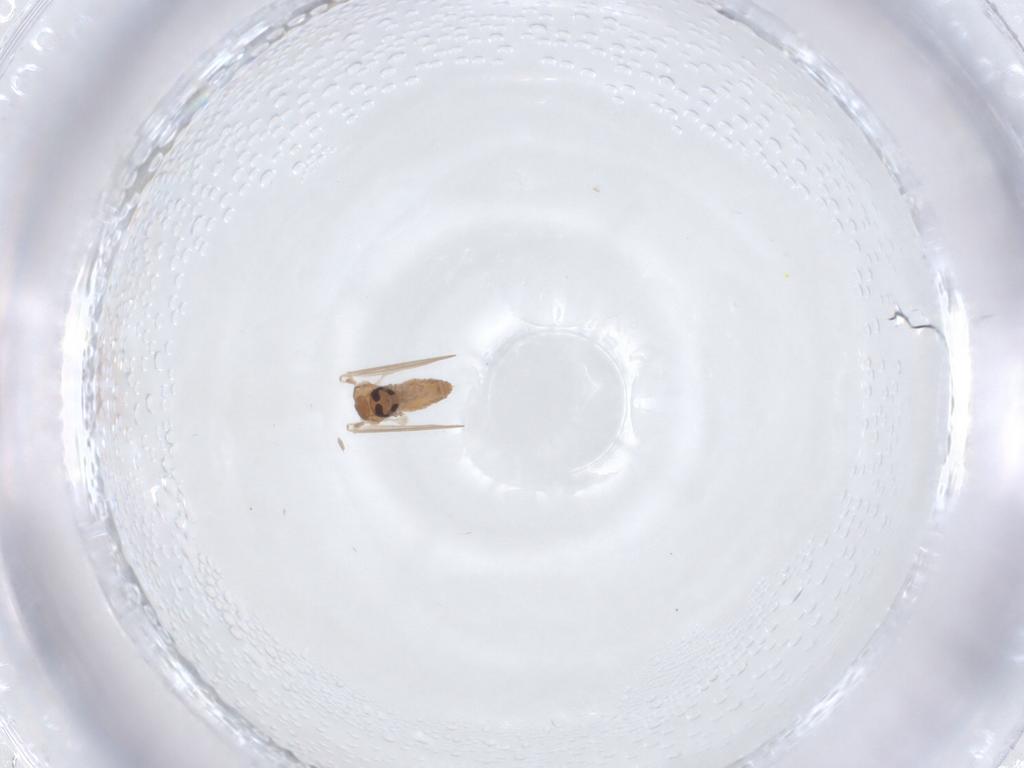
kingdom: Animalia
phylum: Arthropoda
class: Insecta
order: Diptera
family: Psychodidae
